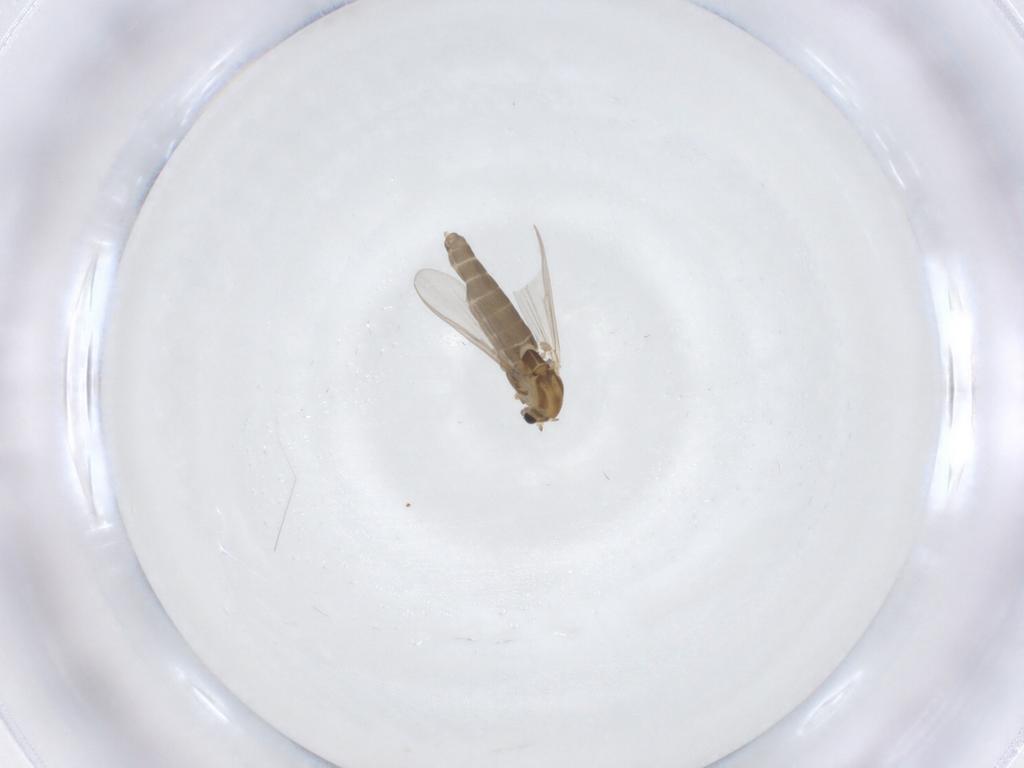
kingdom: Animalia
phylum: Arthropoda
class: Insecta
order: Diptera
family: Chironomidae
